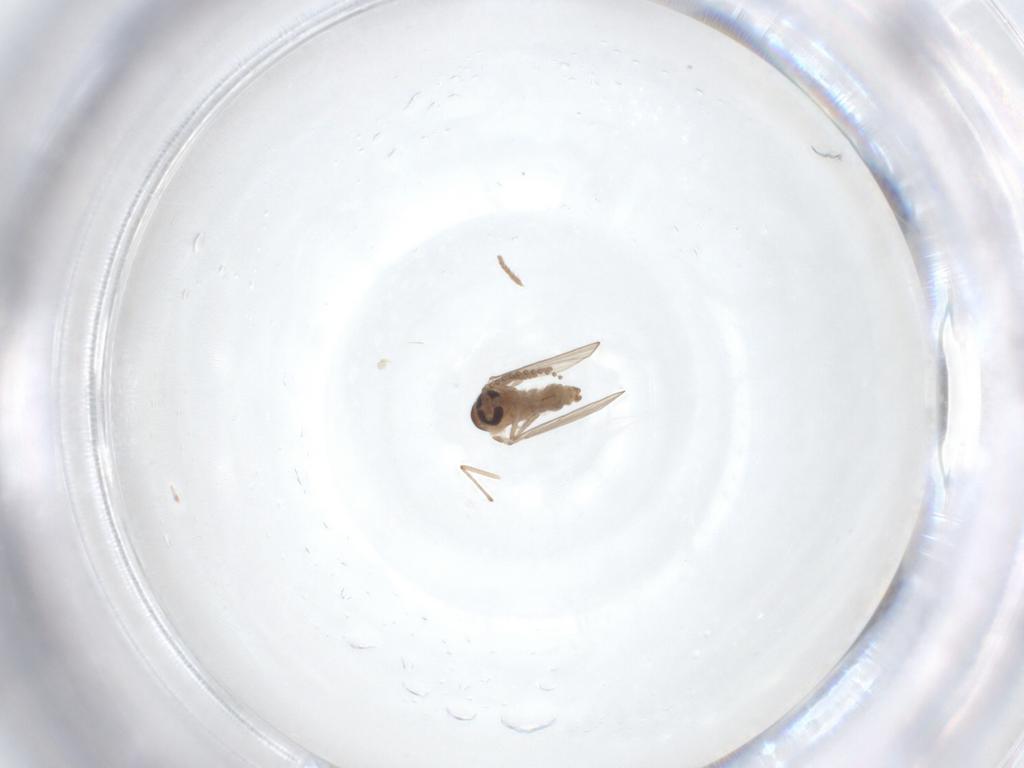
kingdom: Animalia
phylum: Arthropoda
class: Insecta
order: Diptera
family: Psychodidae
